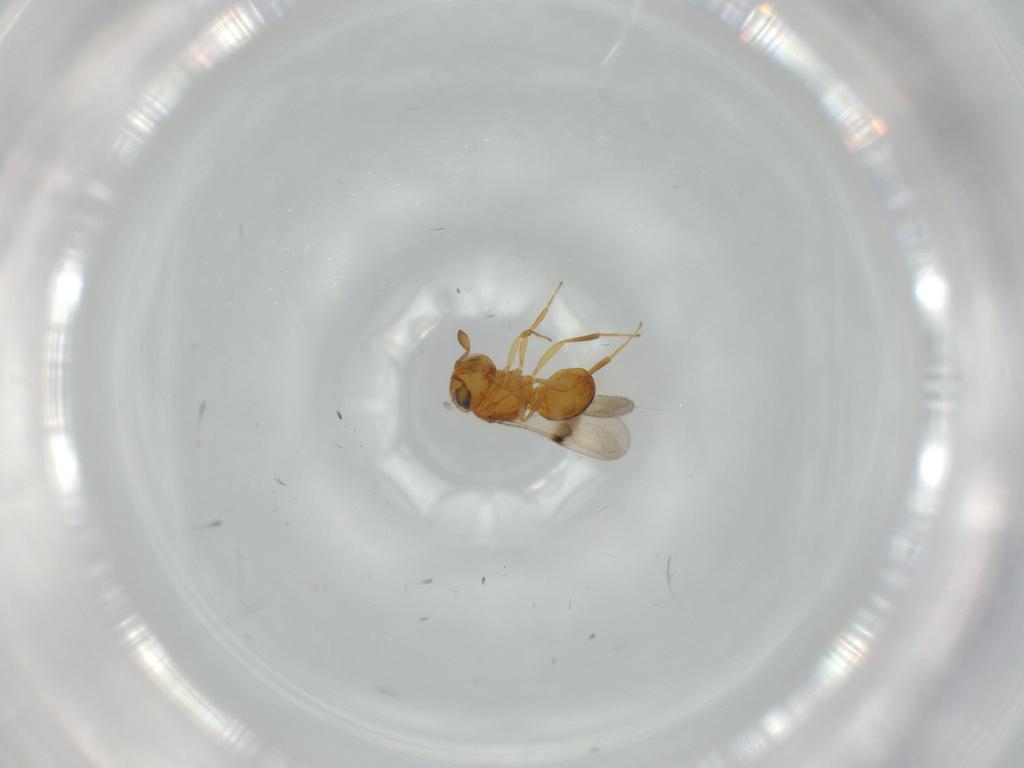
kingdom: Animalia
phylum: Arthropoda
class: Insecta
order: Hymenoptera
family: Scelionidae
